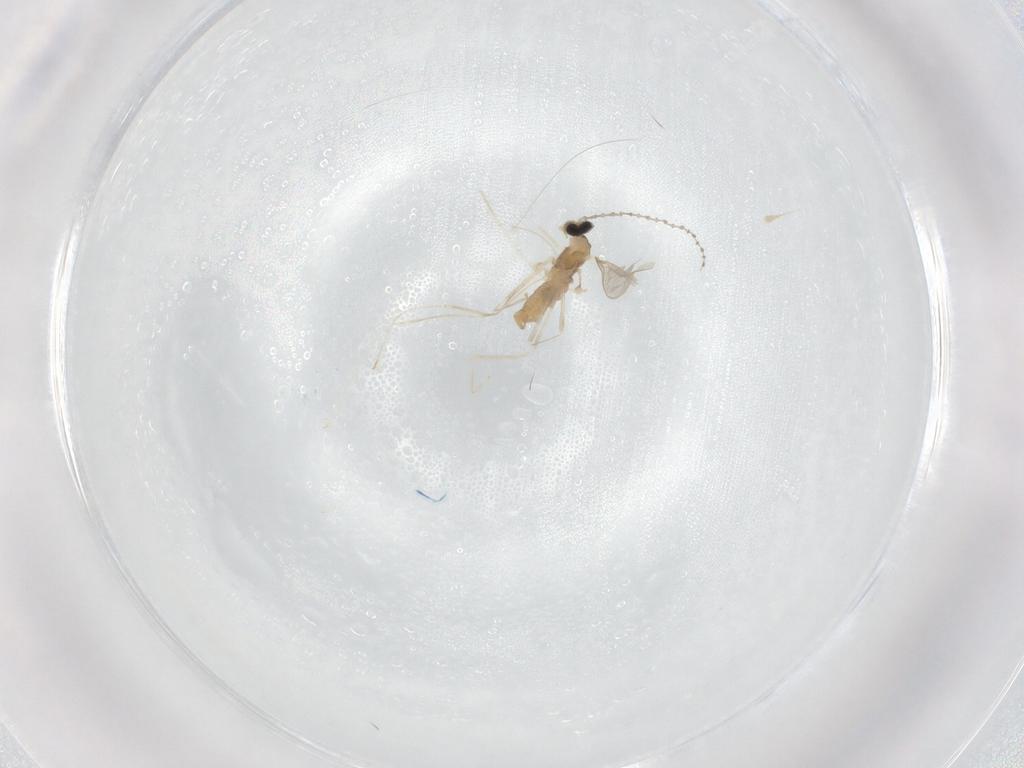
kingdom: Animalia
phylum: Arthropoda
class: Insecta
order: Diptera
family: Cecidomyiidae
